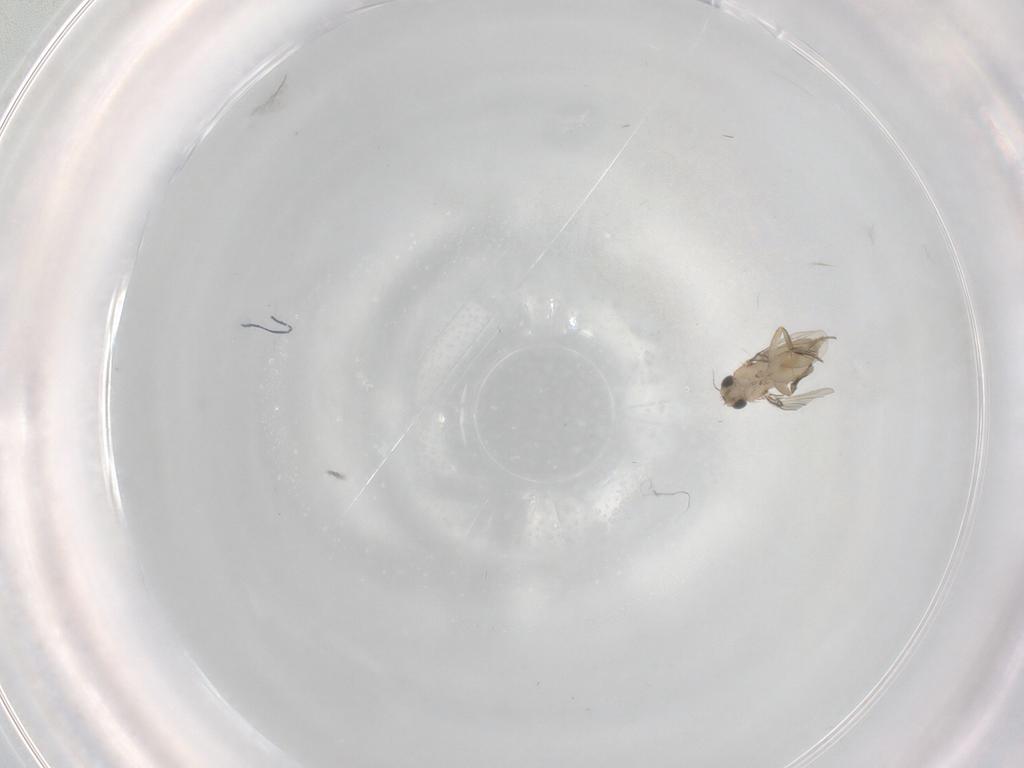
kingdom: Animalia
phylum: Arthropoda
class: Insecta
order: Diptera
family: Phoridae
